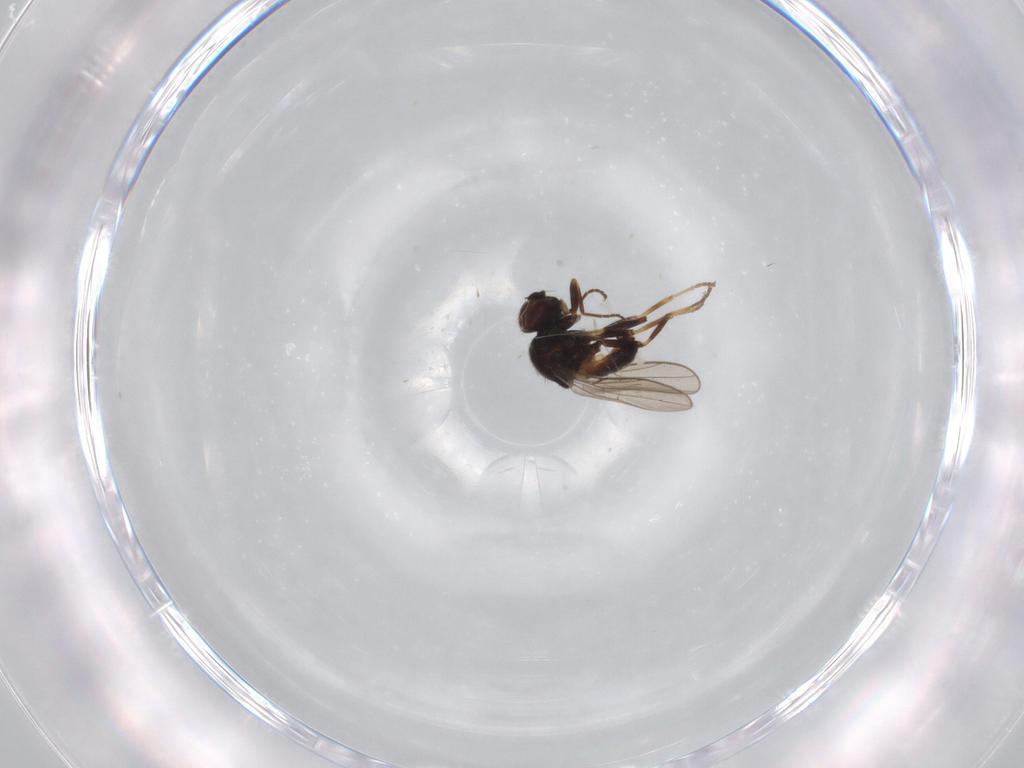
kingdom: Animalia
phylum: Arthropoda
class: Insecta
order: Diptera
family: Chloropidae
